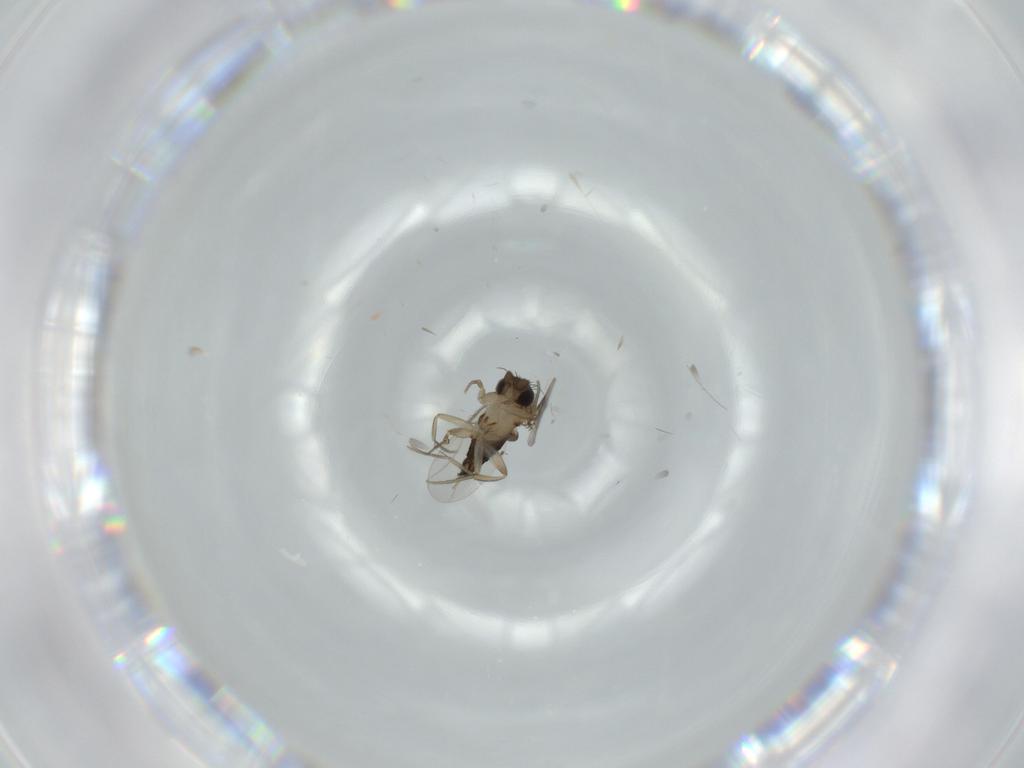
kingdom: Animalia
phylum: Arthropoda
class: Insecta
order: Diptera
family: Phoridae
